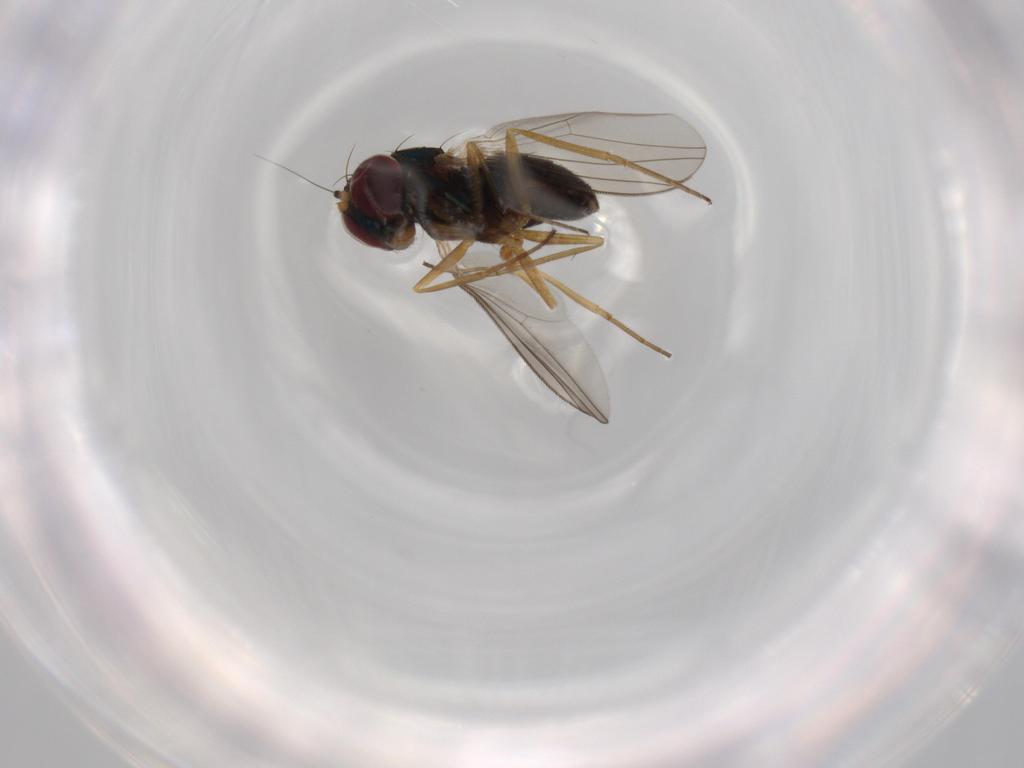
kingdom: Animalia
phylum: Arthropoda
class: Insecta
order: Diptera
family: Dolichopodidae
